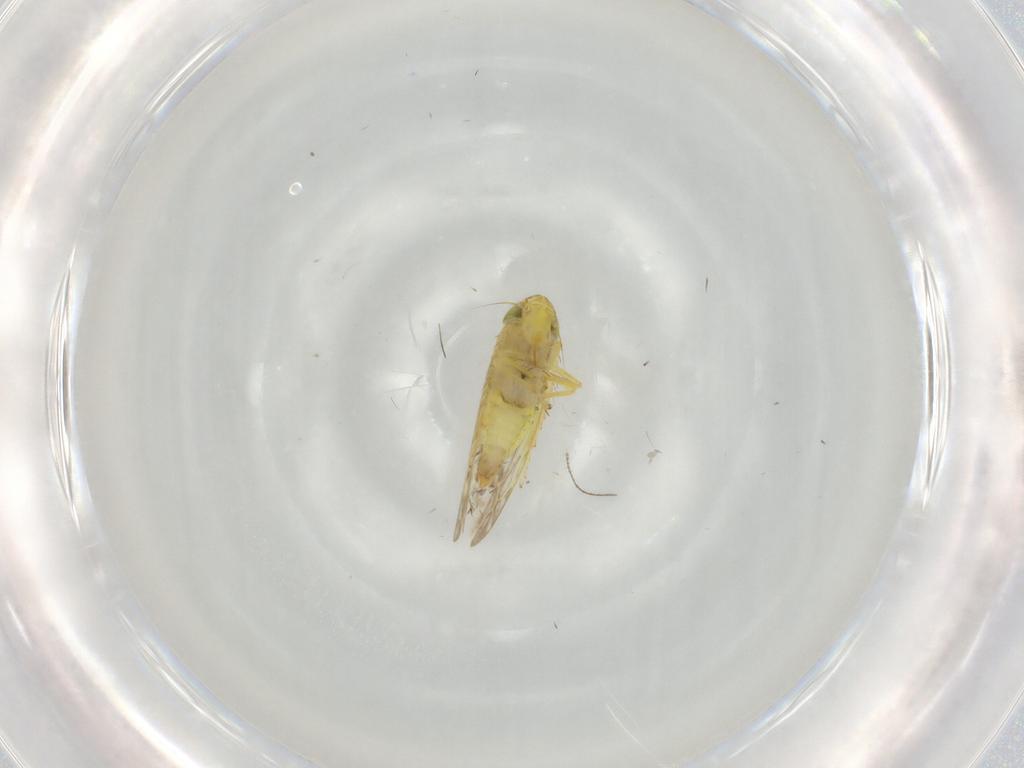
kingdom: Animalia
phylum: Arthropoda
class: Insecta
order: Hemiptera
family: Cicadellidae
